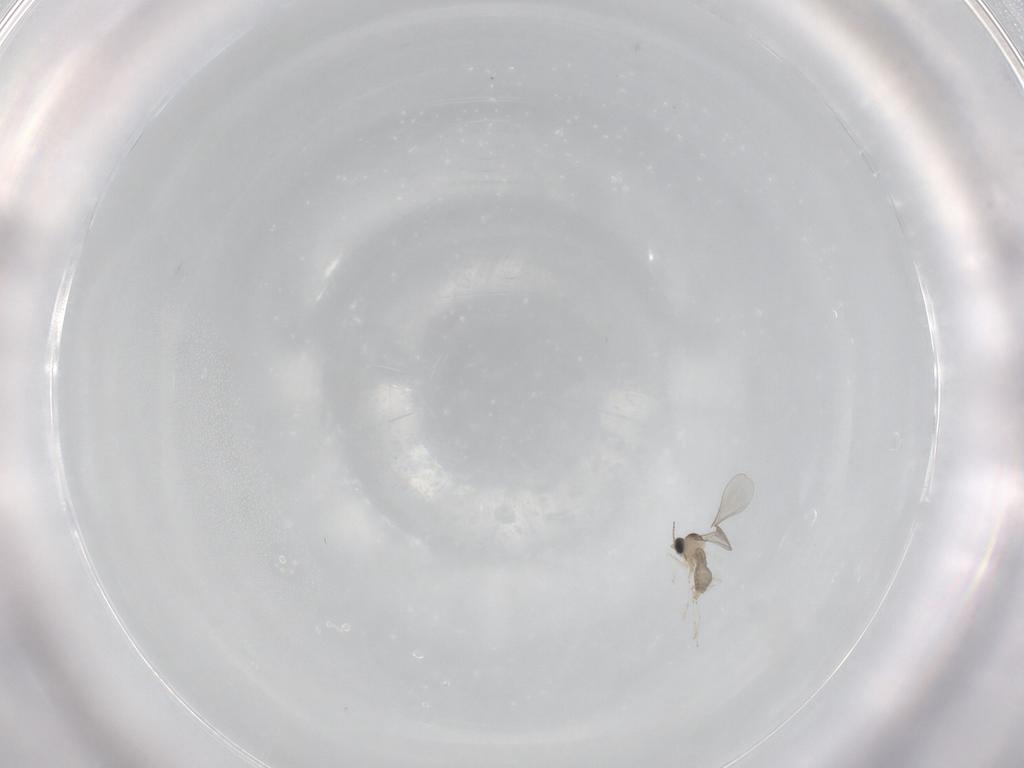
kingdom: Animalia
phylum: Arthropoda
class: Insecta
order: Diptera
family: Cecidomyiidae
